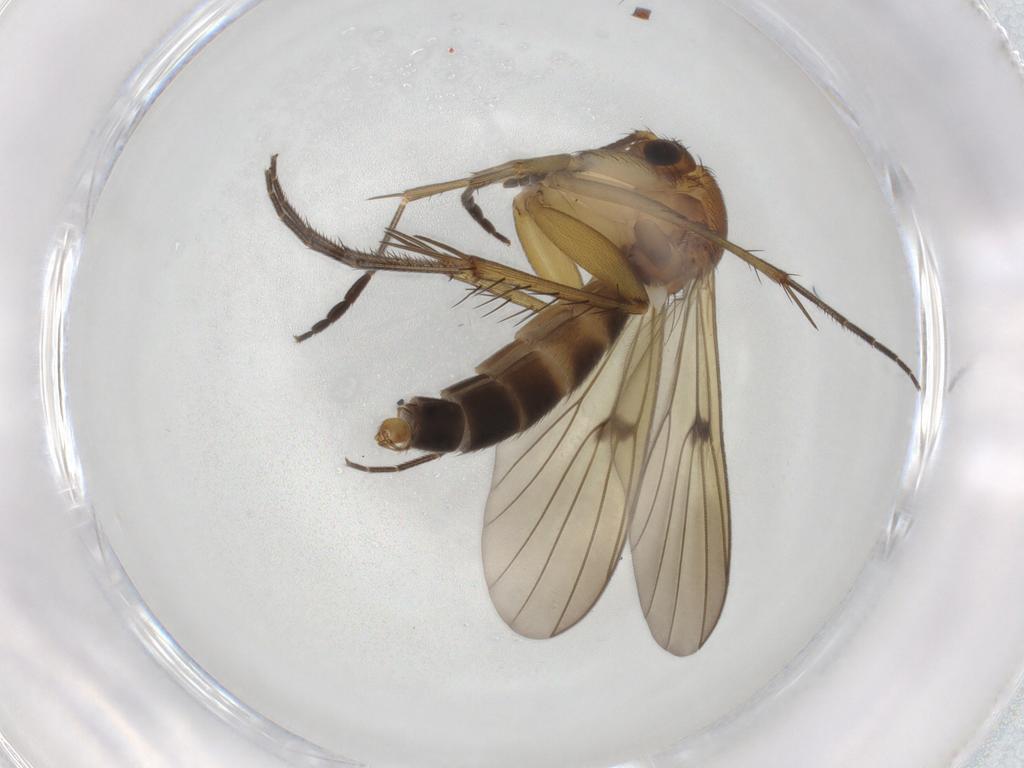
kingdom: Animalia
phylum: Arthropoda
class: Insecta
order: Diptera
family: Mycetophilidae
